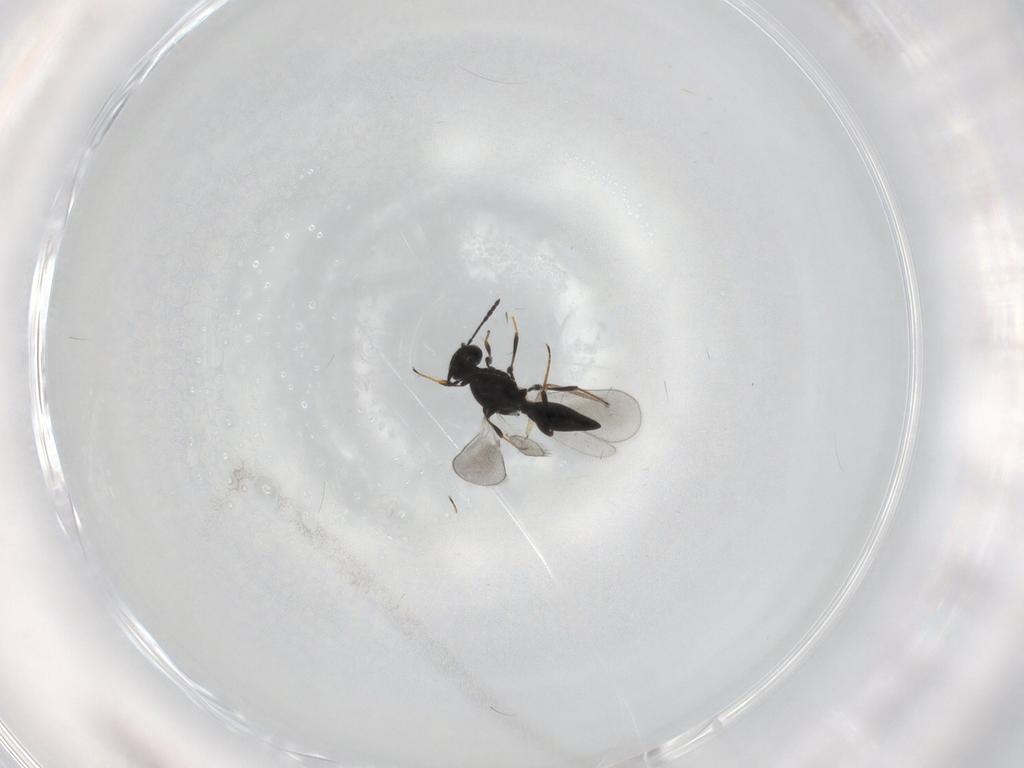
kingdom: Animalia
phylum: Arthropoda
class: Insecta
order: Hymenoptera
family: Platygastridae
